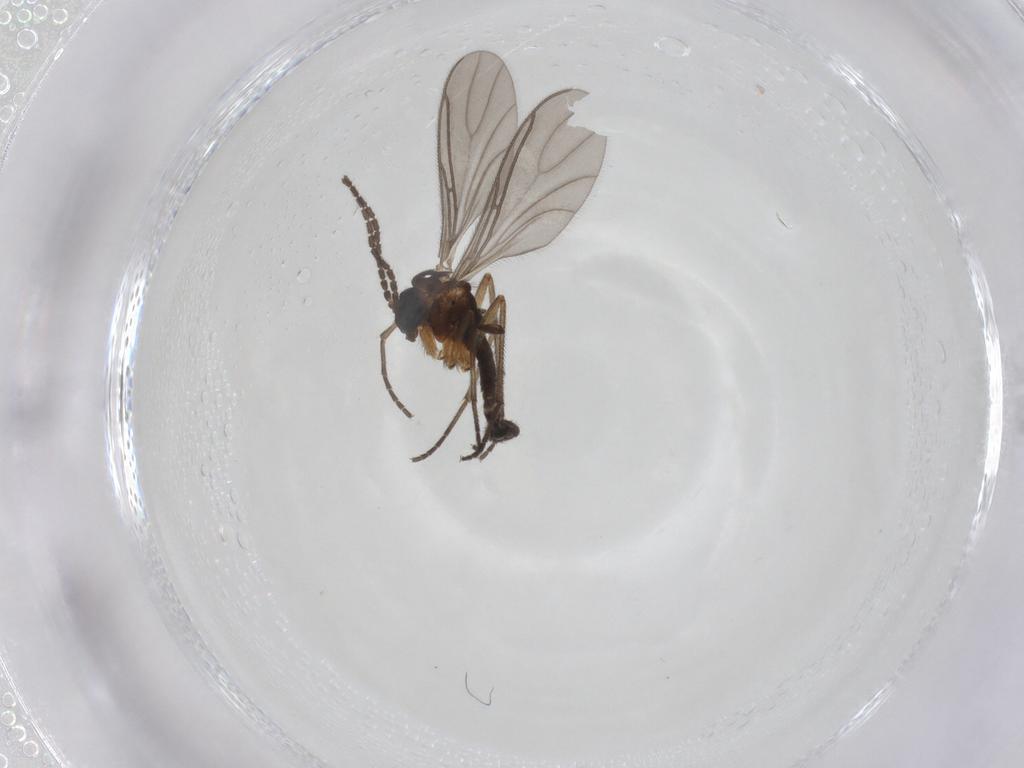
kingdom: Animalia
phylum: Arthropoda
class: Insecta
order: Diptera
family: Sciaridae
